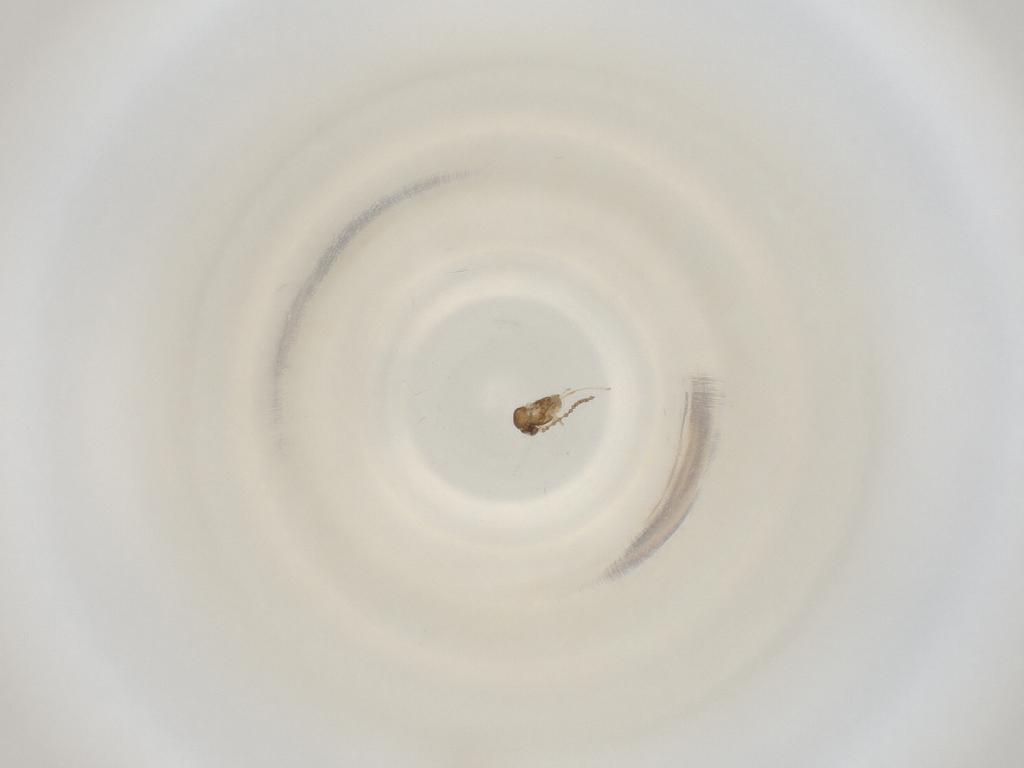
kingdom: Animalia
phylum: Arthropoda
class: Insecta
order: Diptera
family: Cecidomyiidae
